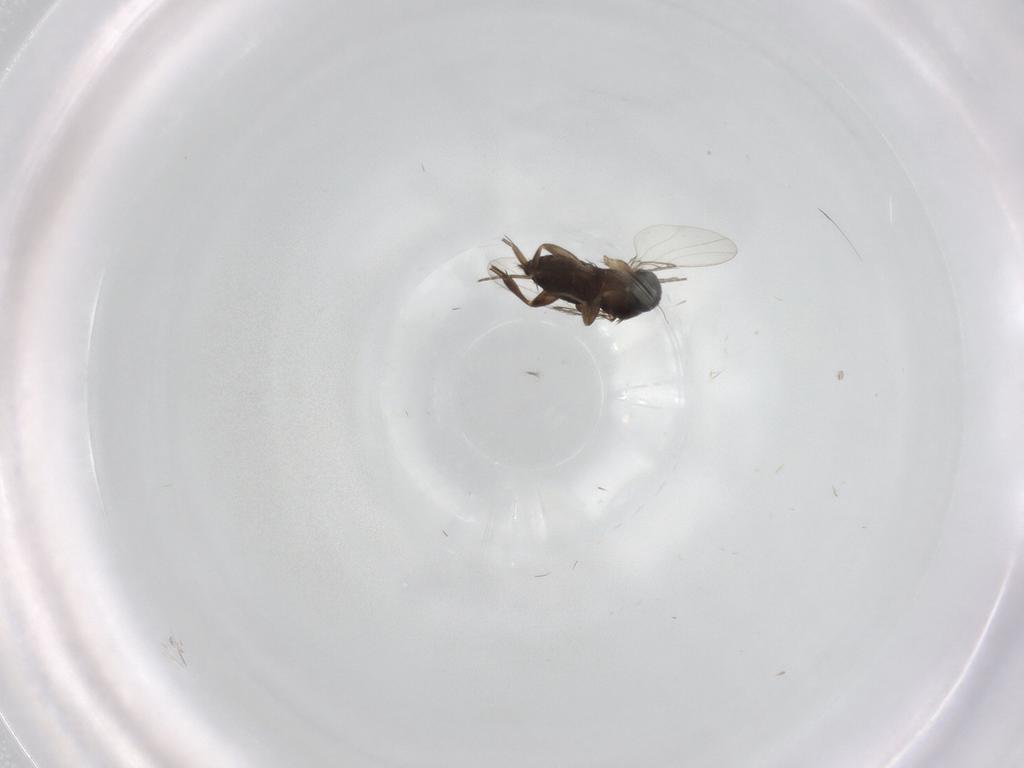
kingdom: Animalia
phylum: Arthropoda
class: Insecta
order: Diptera
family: Phoridae
